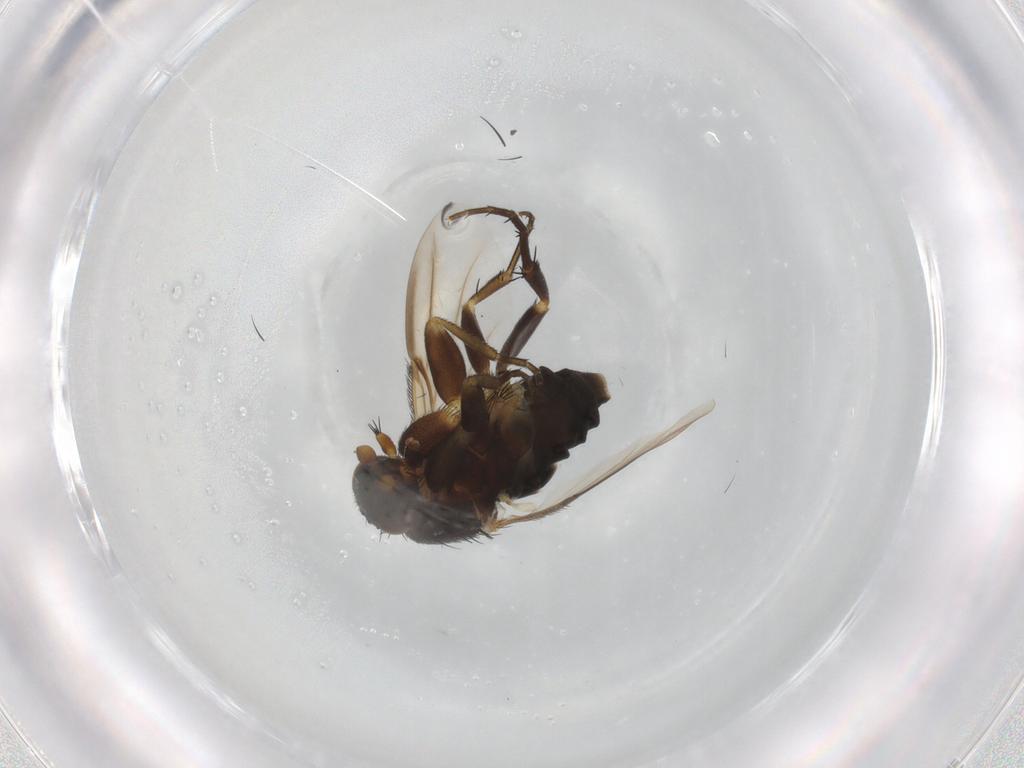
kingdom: Animalia
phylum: Arthropoda
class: Insecta
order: Diptera
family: Phoridae
